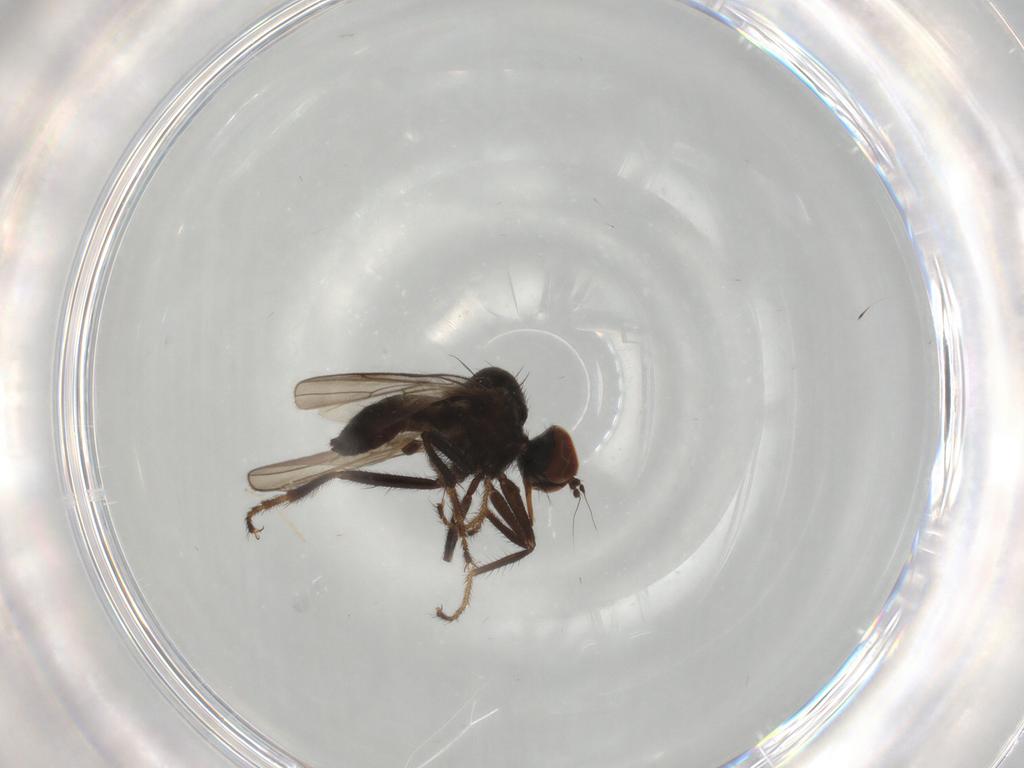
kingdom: Animalia
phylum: Arthropoda
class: Insecta
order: Diptera
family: Hybotidae
